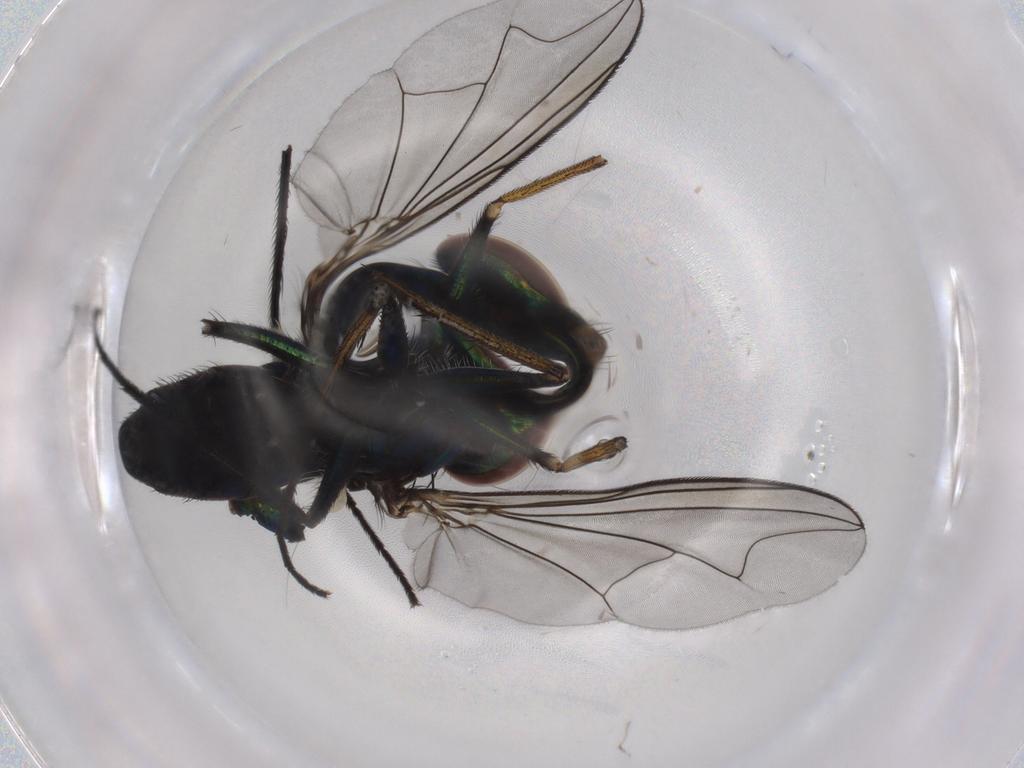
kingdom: Animalia
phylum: Arthropoda
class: Insecta
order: Diptera
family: Dolichopodidae
